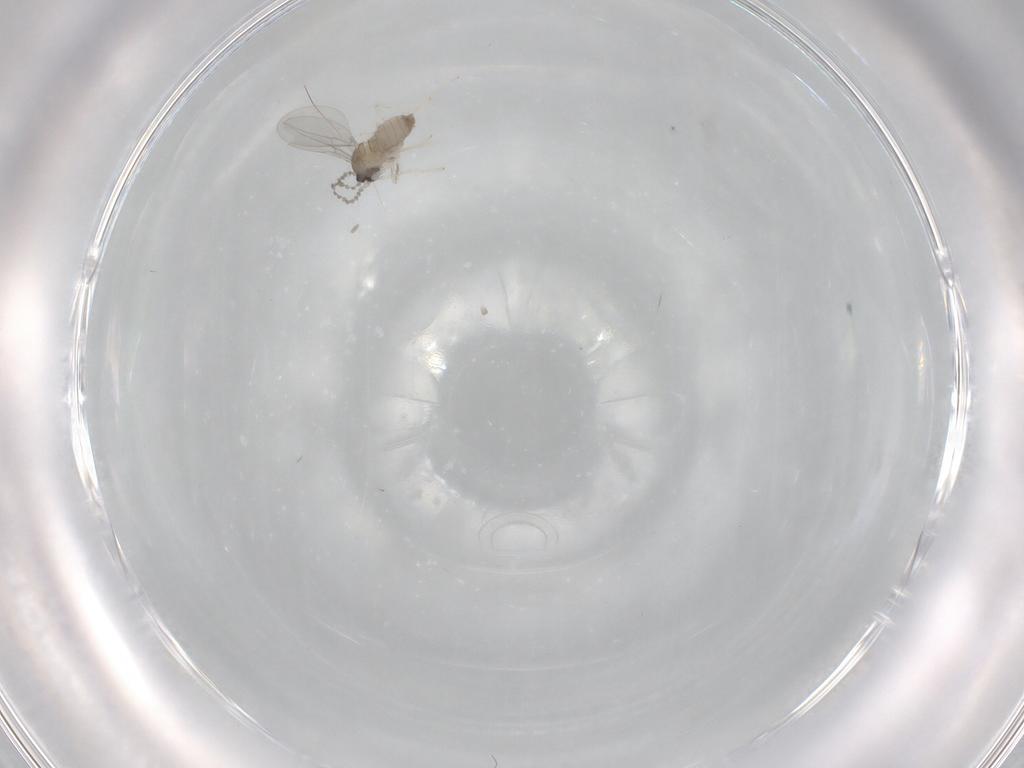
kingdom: Animalia
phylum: Arthropoda
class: Insecta
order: Diptera
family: Cecidomyiidae
